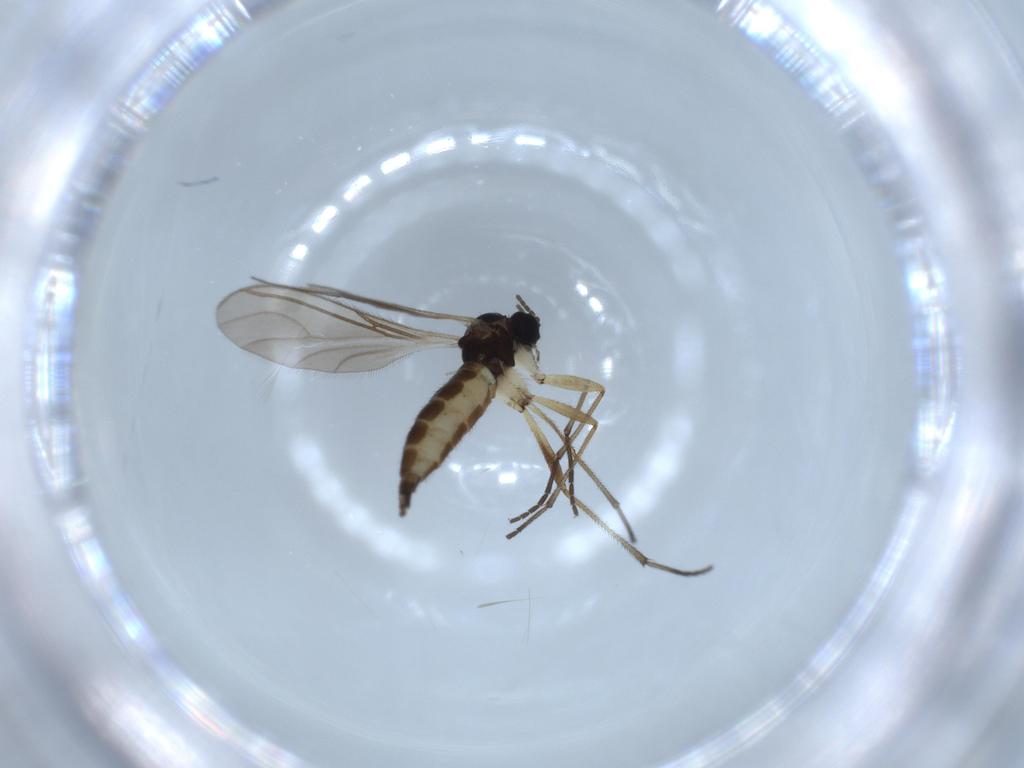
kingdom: Animalia
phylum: Arthropoda
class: Insecta
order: Diptera
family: Sciaridae
